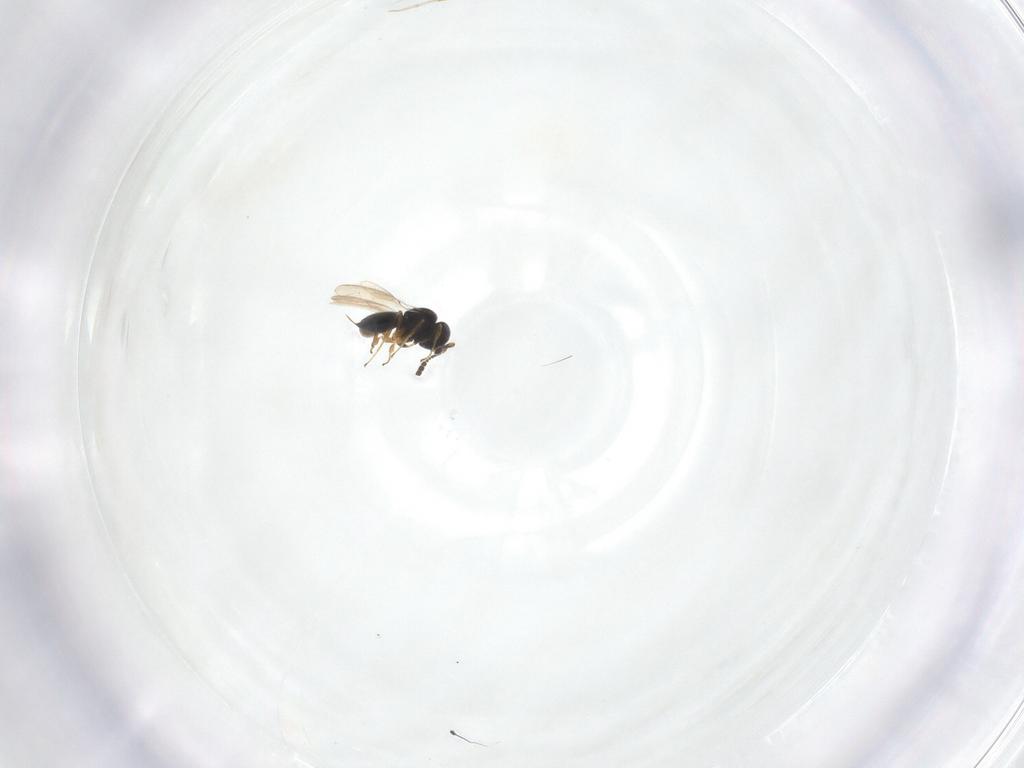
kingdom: Animalia
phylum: Arthropoda
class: Insecta
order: Hymenoptera
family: Scelionidae
